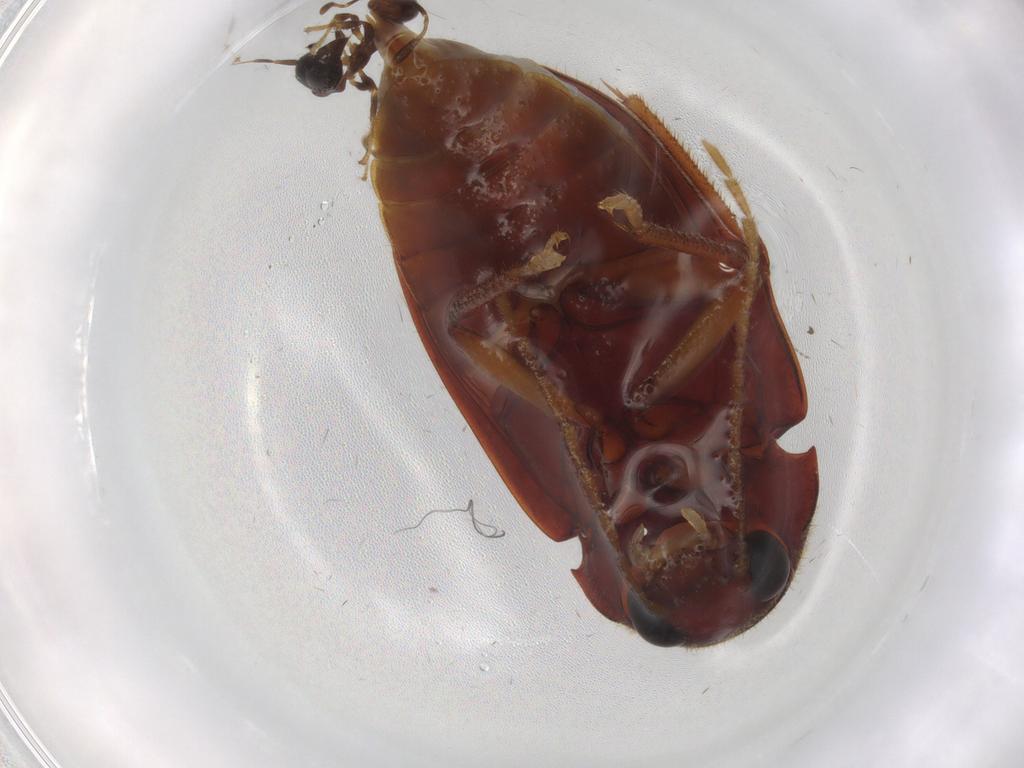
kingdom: Animalia
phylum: Arthropoda
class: Insecta
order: Coleoptera
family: Ptilodactylidae
